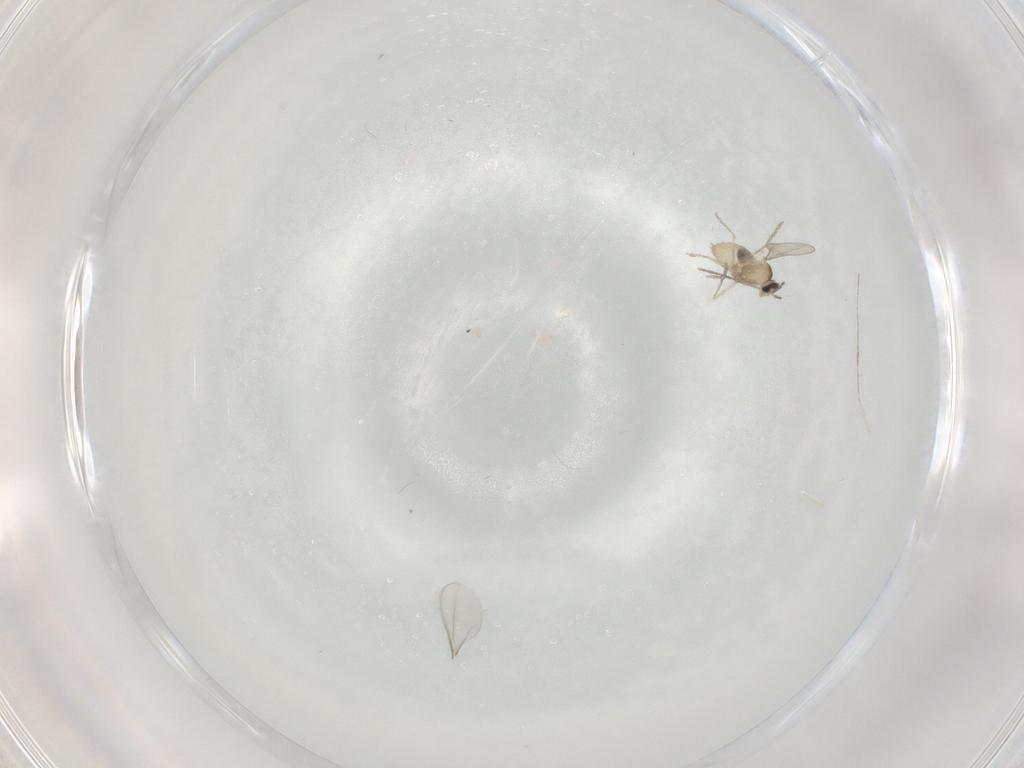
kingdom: Animalia
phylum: Arthropoda
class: Insecta
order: Diptera
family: Cecidomyiidae
